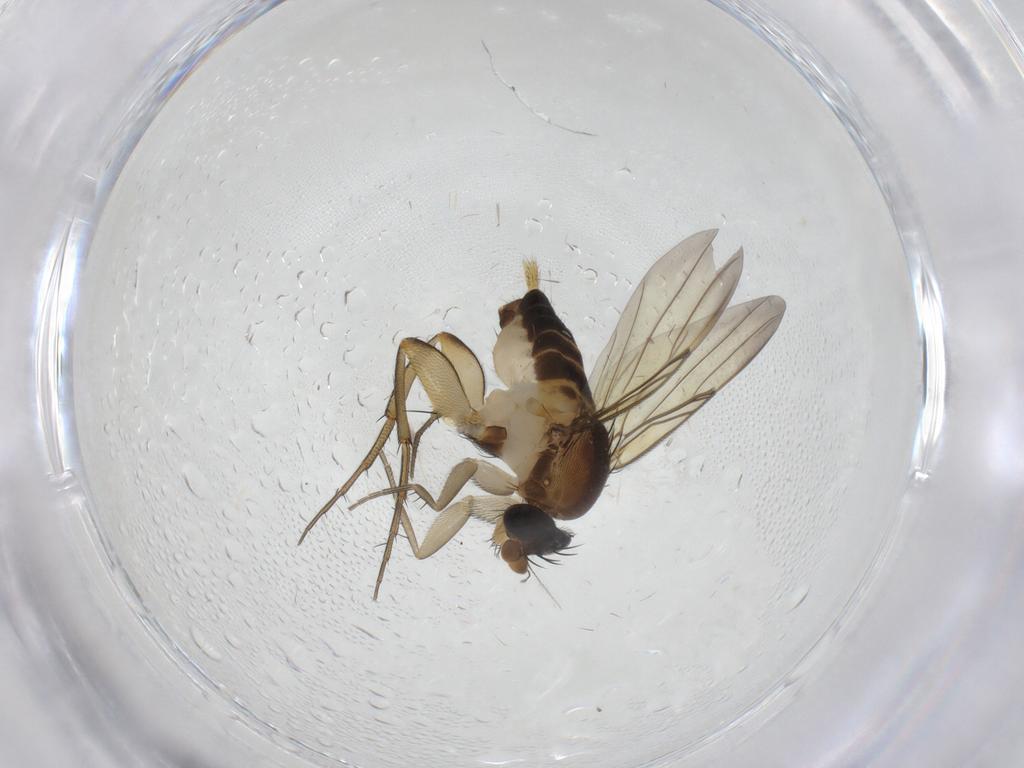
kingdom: Animalia
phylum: Arthropoda
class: Insecta
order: Diptera
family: Phoridae
